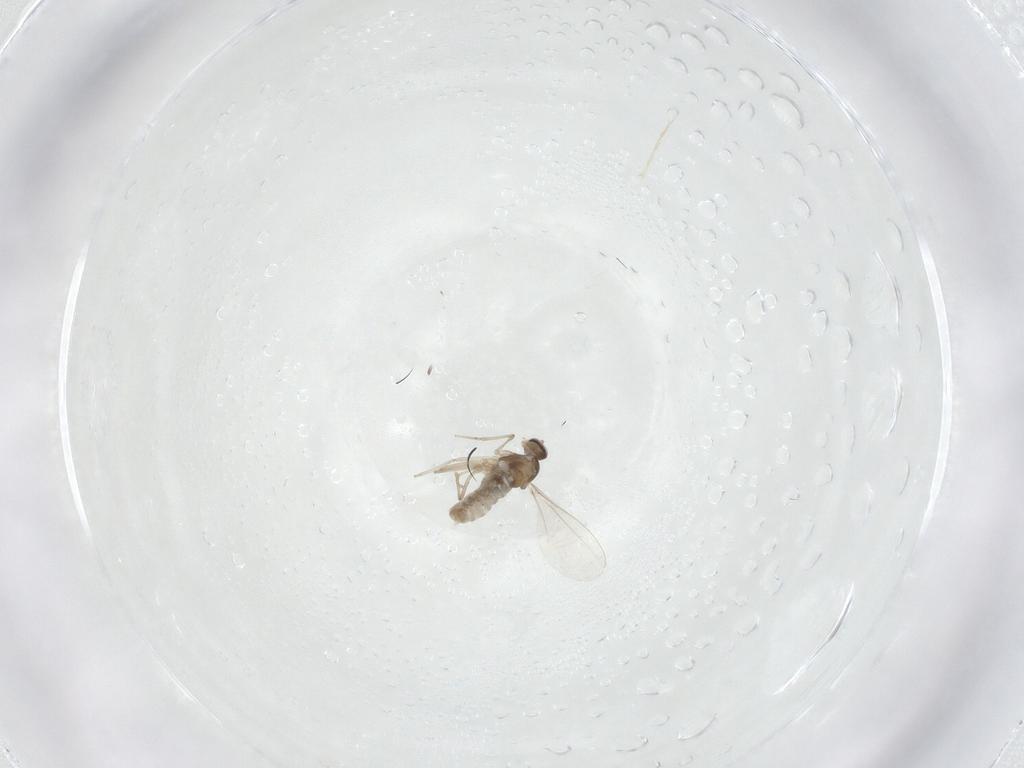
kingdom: Animalia
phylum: Arthropoda
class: Insecta
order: Diptera
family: Cecidomyiidae
